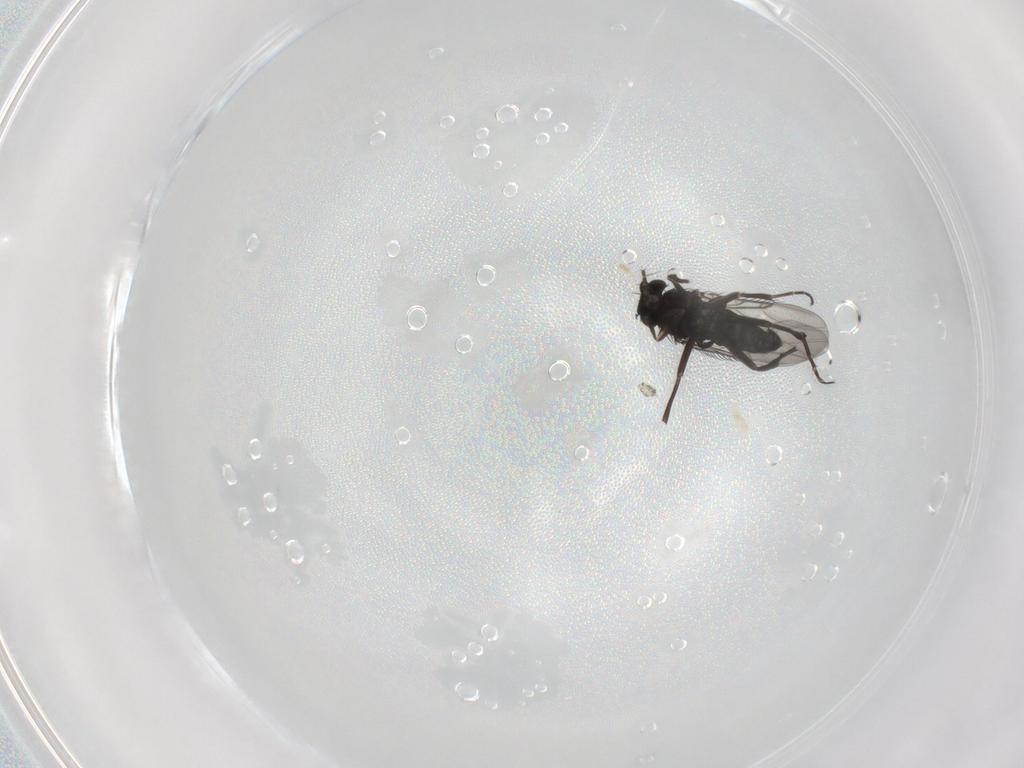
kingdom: Animalia
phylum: Arthropoda
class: Insecta
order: Diptera
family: Phoridae
